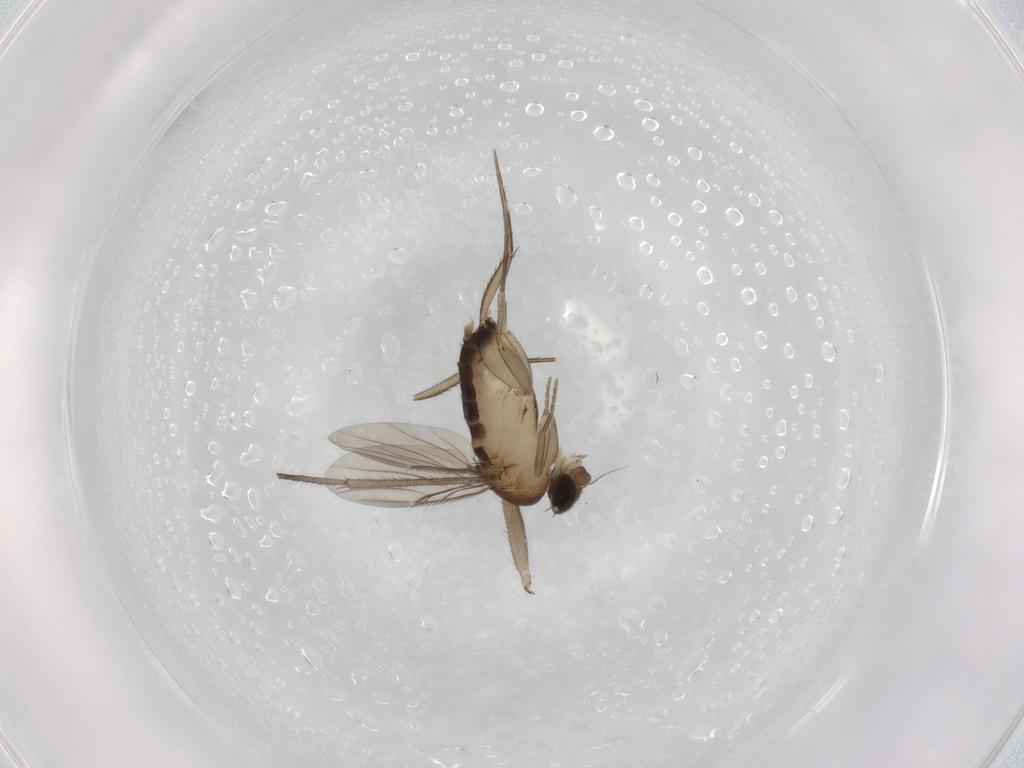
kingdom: Animalia
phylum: Arthropoda
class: Insecta
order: Diptera
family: Phoridae
